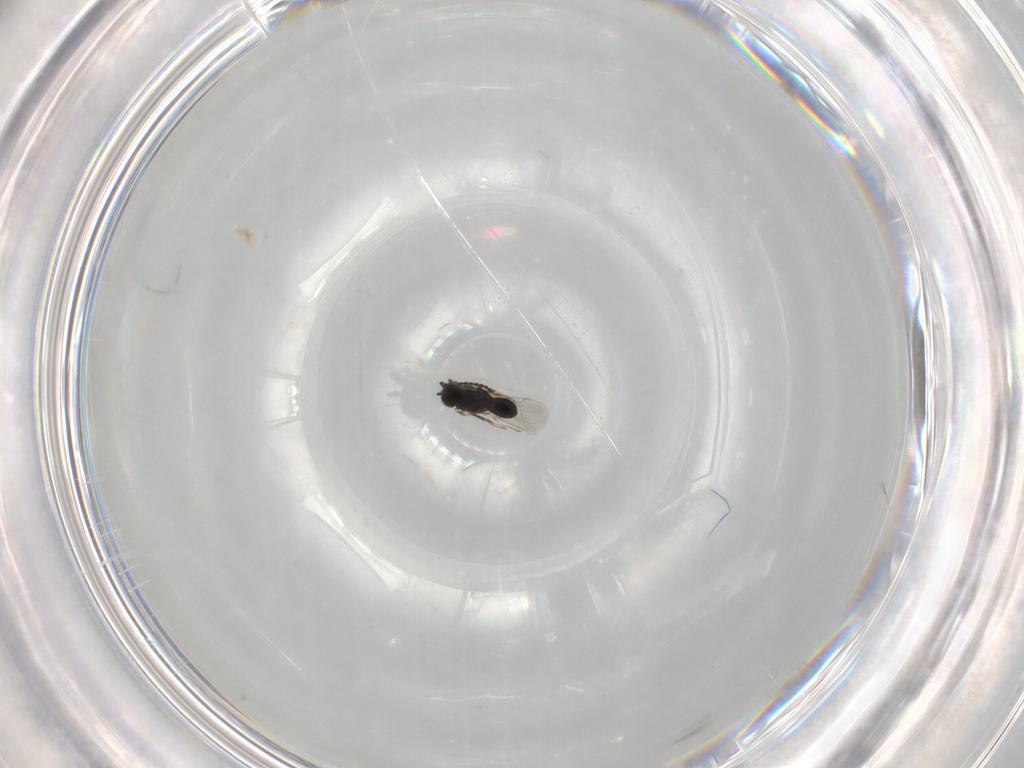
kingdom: Animalia
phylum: Arthropoda
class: Insecta
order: Hymenoptera
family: Scelionidae
